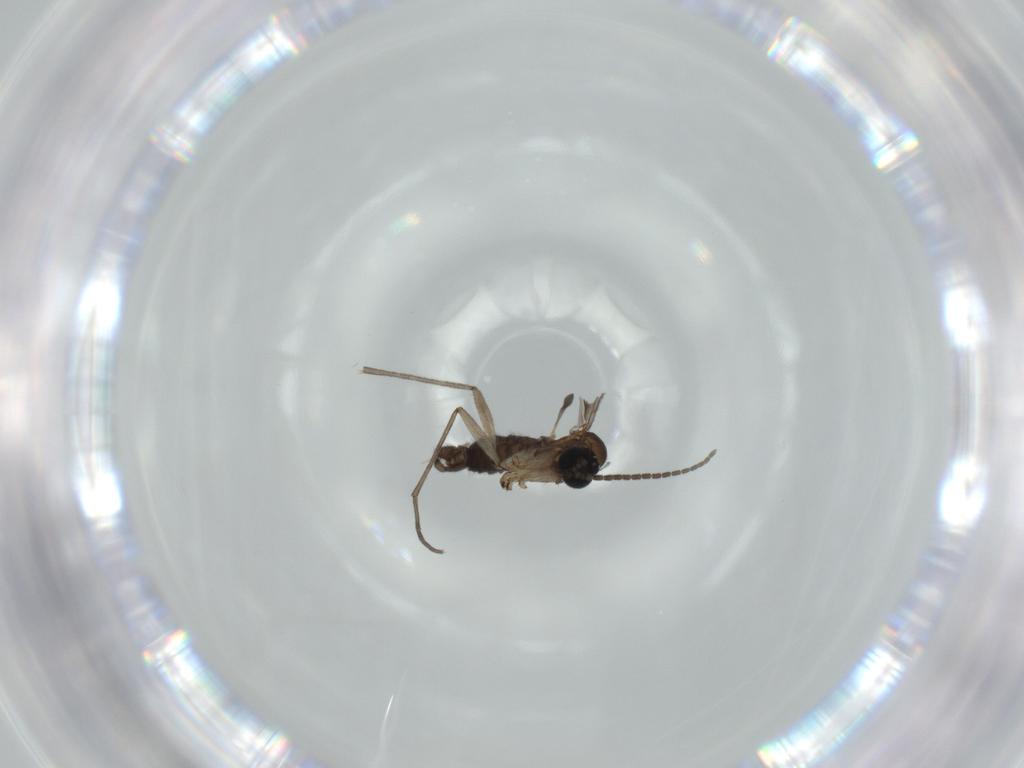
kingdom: Animalia
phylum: Arthropoda
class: Insecta
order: Diptera
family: Sciaridae
